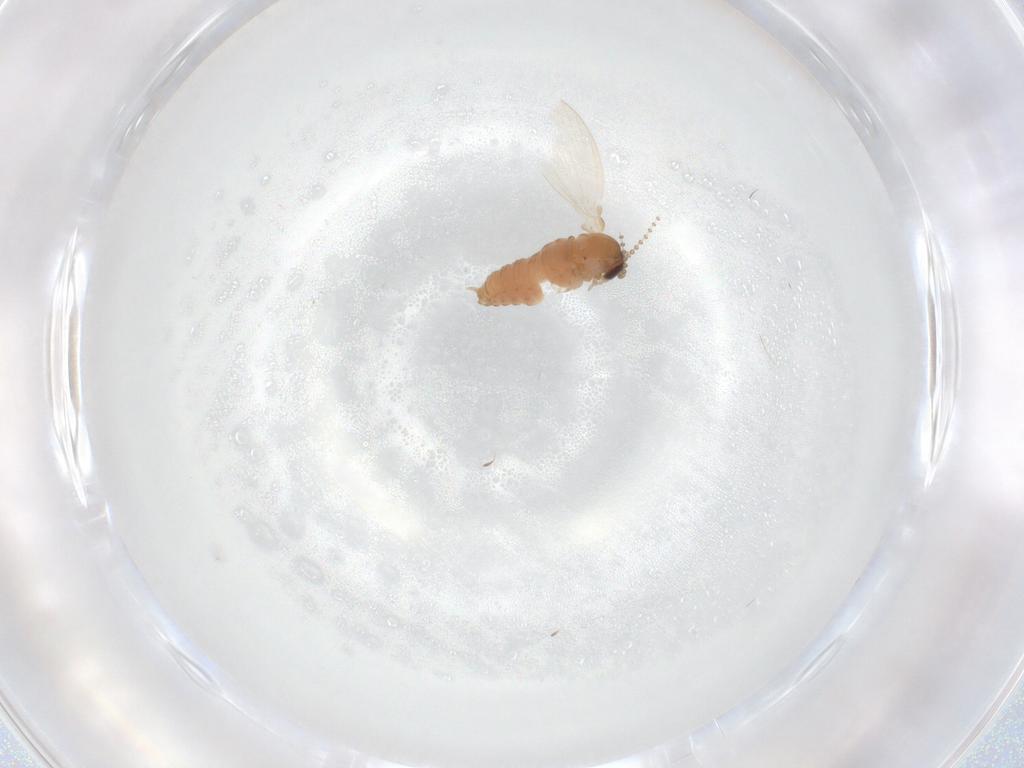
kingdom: Animalia
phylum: Arthropoda
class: Insecta
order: Diptera
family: Psychodidae
